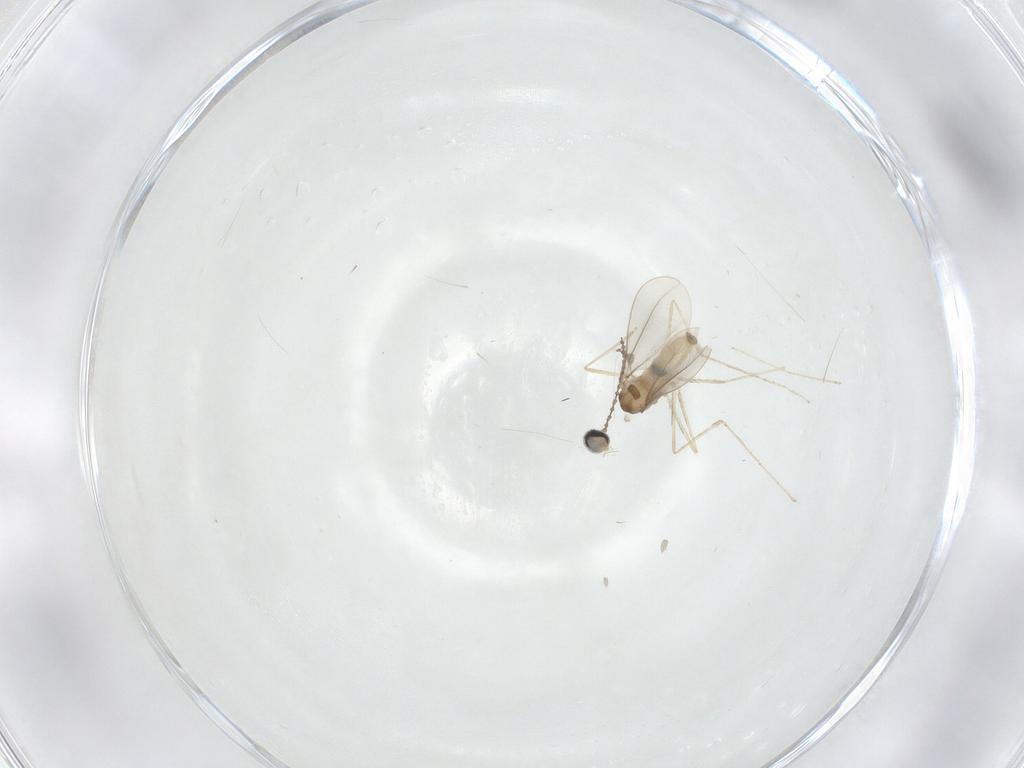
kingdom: Animalia
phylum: Arthropoda
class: Insecta
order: Diptera
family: Cecidomyiidae
